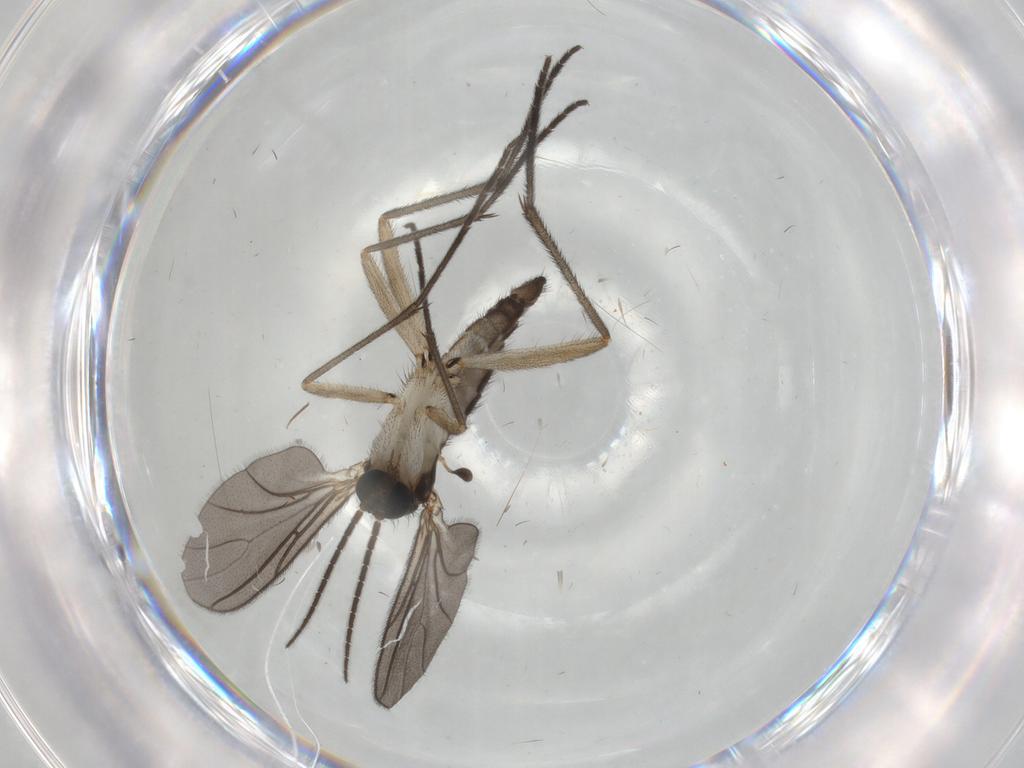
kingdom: Animalia
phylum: Arthropoda
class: Insecta
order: Diptera
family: Sciaridae
